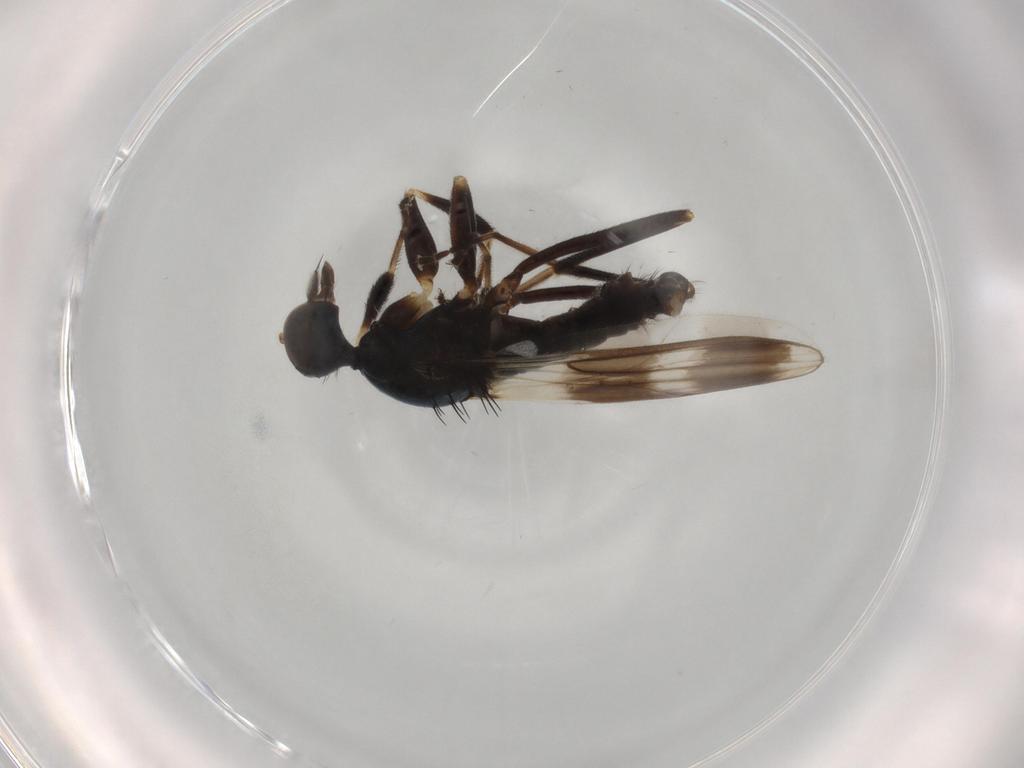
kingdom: Animalia
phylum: Arthropoda
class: Insecta
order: Diptera
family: Hybotidae
